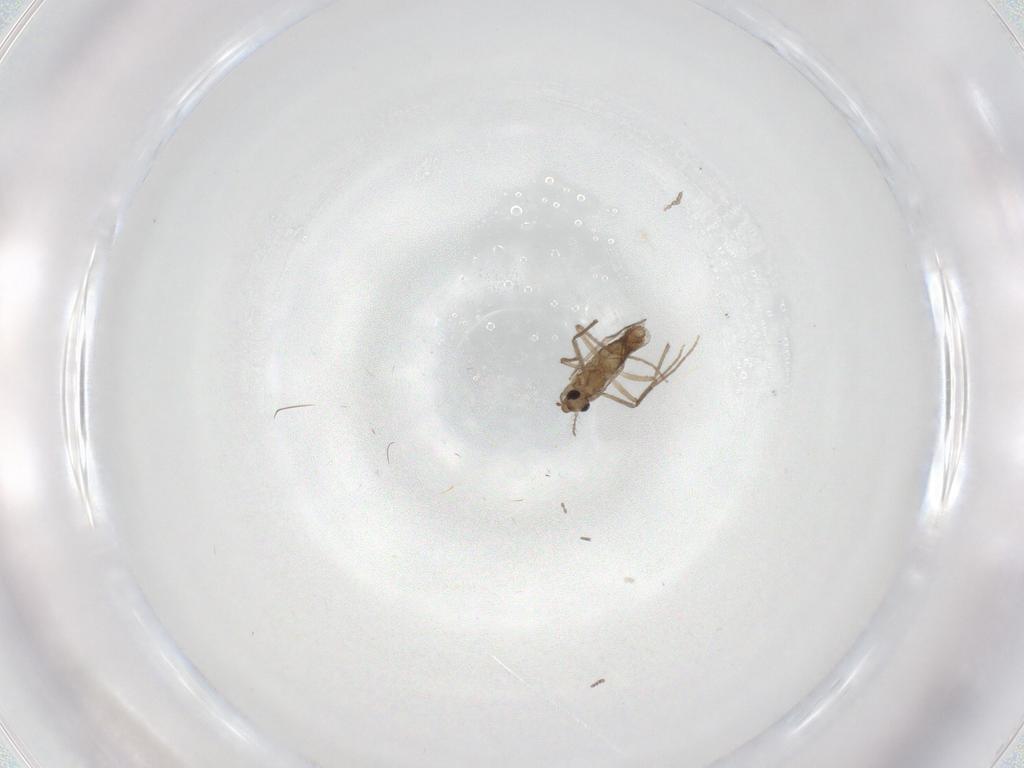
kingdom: Animalia
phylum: Arthropoda
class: Insecta
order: Diptera
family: Chironomidae
